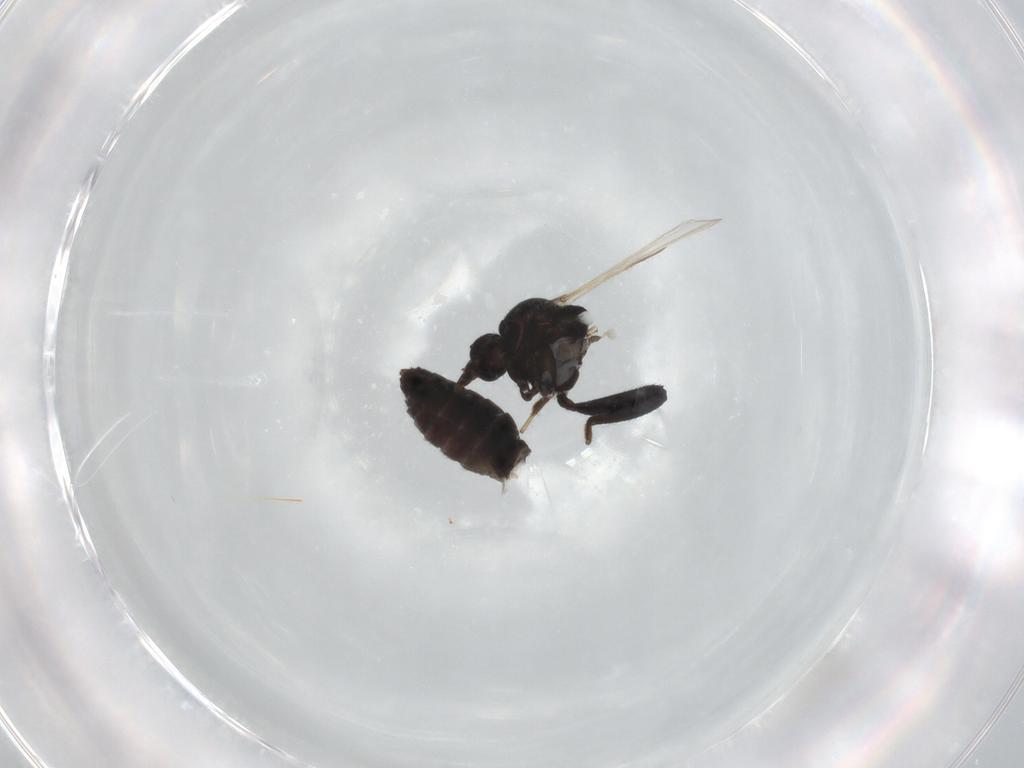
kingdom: Animalia
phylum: Arthropoda
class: Insecta
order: Diptera
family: Ceratopogonidae
